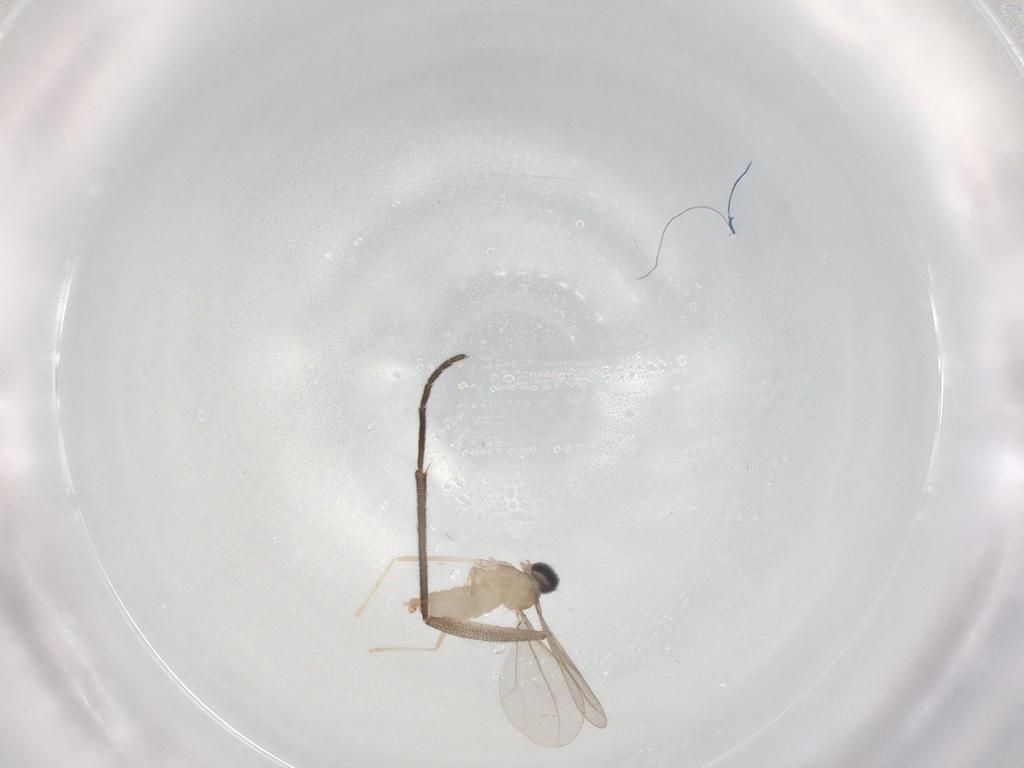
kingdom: Animalia
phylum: Arthropoda
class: Insecta
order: Diptera
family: Cecidomyiidae
